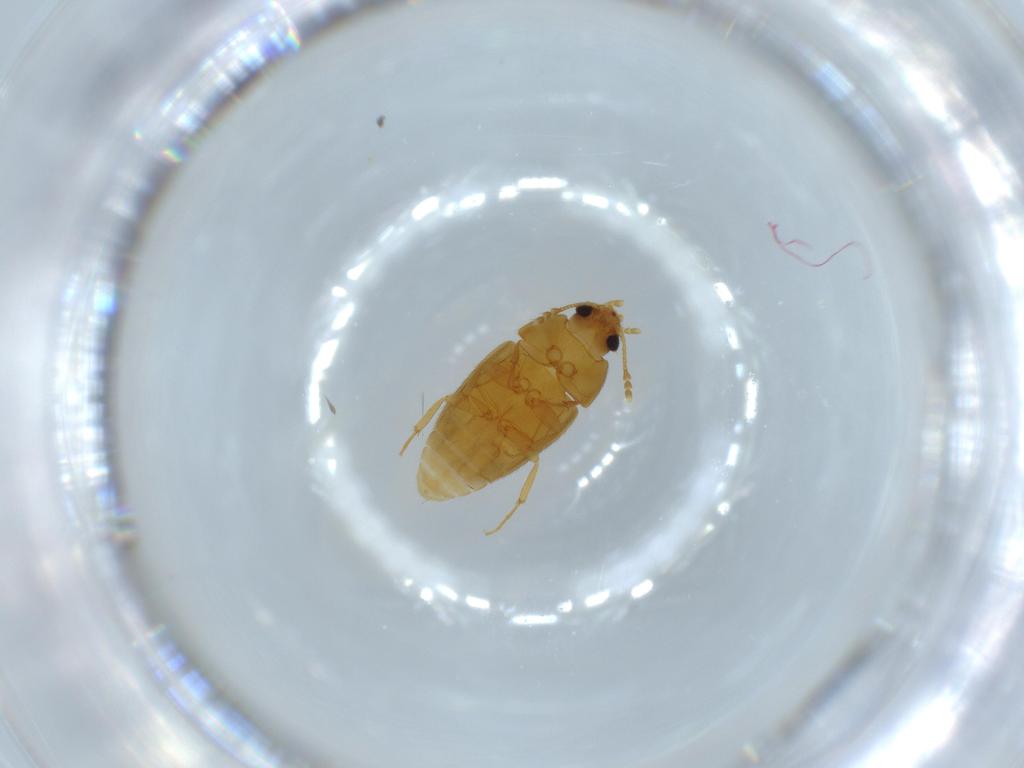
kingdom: Animalia
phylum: Arthropoda
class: Insecta
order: Coleoptera
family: Mycetophagidae
